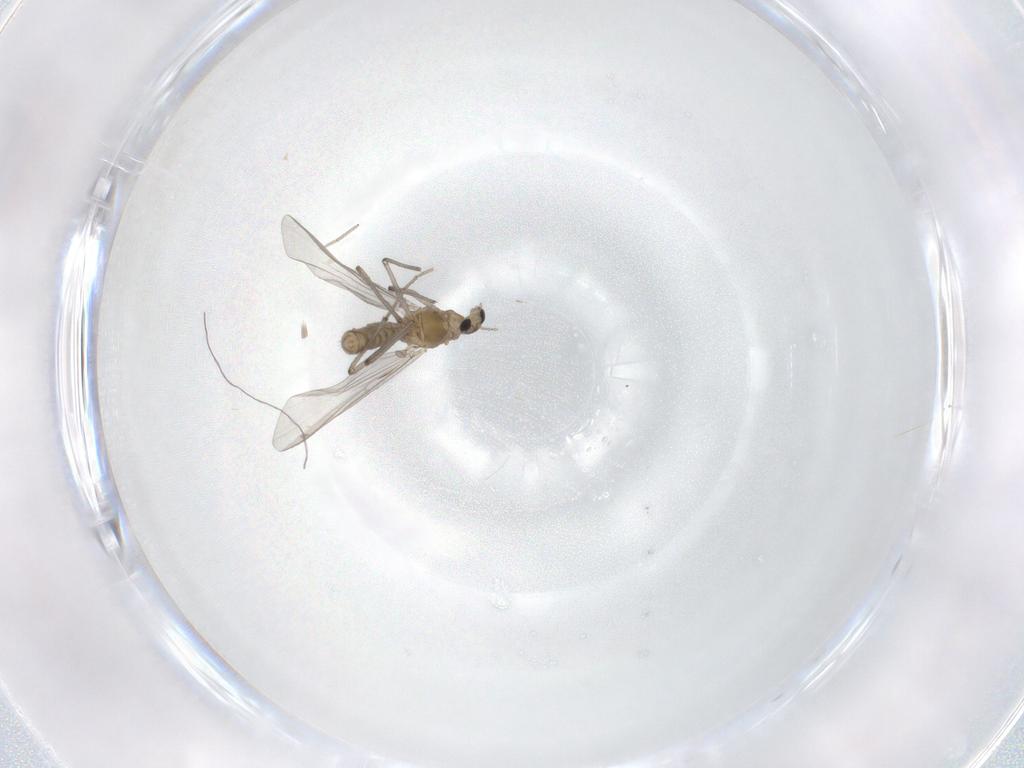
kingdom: Animalia
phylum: Arthropoda
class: Insecta
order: Diptera
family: Chironomidae
